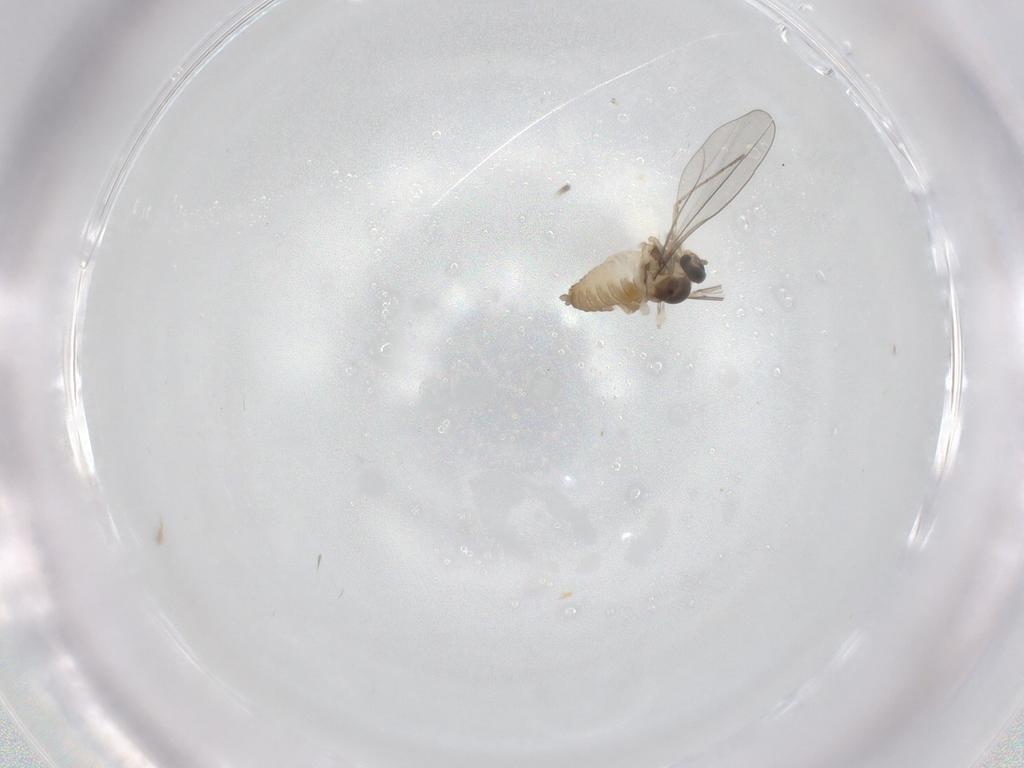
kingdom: Animalia
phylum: Arthropoda
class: Insecta
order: Diptera
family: Cecidomyiidae
